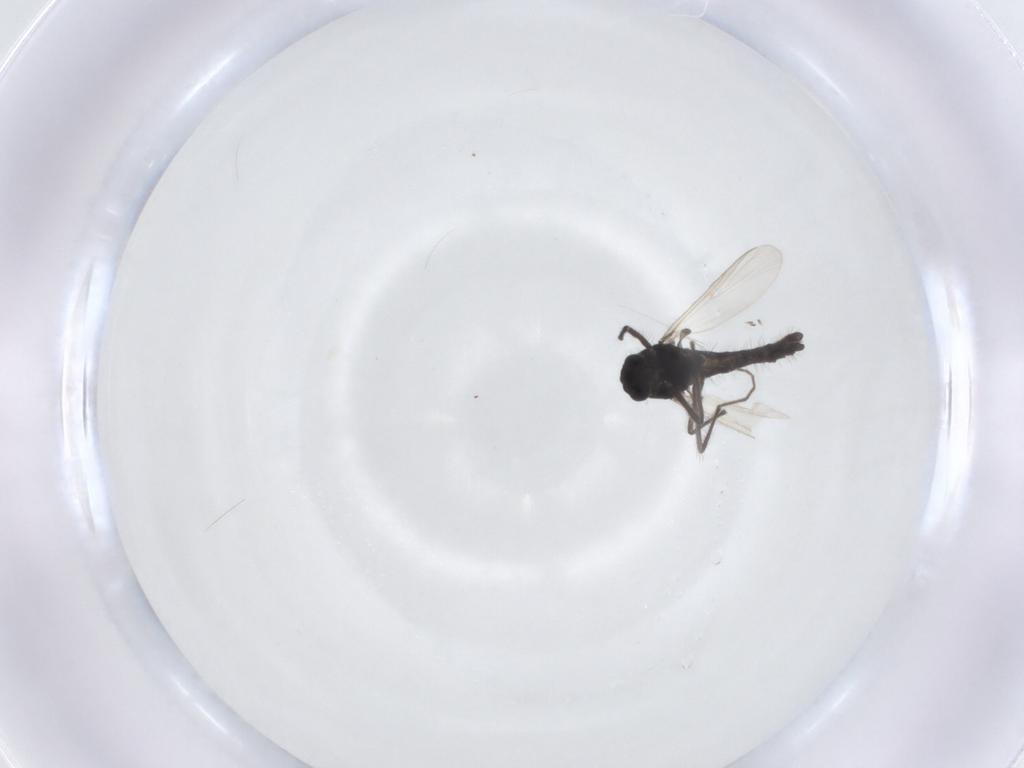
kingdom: Animalia
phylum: Arthropoda
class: Insecta
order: Diptera
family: Chironomidae
